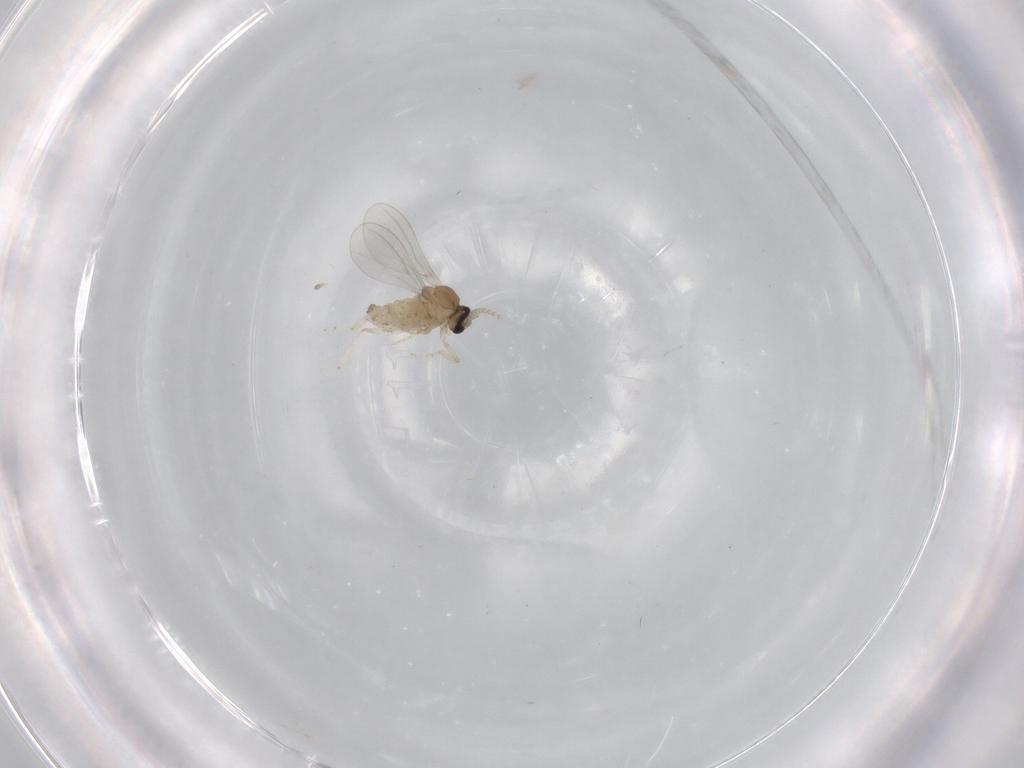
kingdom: Animalia
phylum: Arthropoda
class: Insecta
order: Diptera
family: Cecidomyiidae
